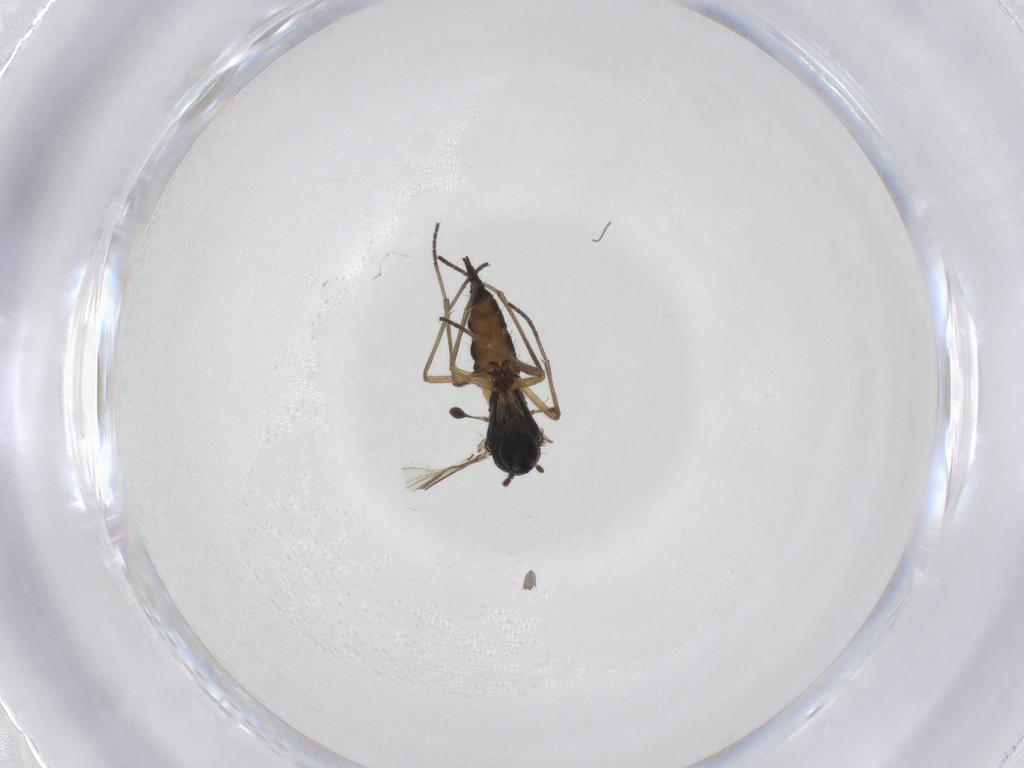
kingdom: Animalia
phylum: Arthropoda
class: Insecta
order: Diptera
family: Sciaridae
